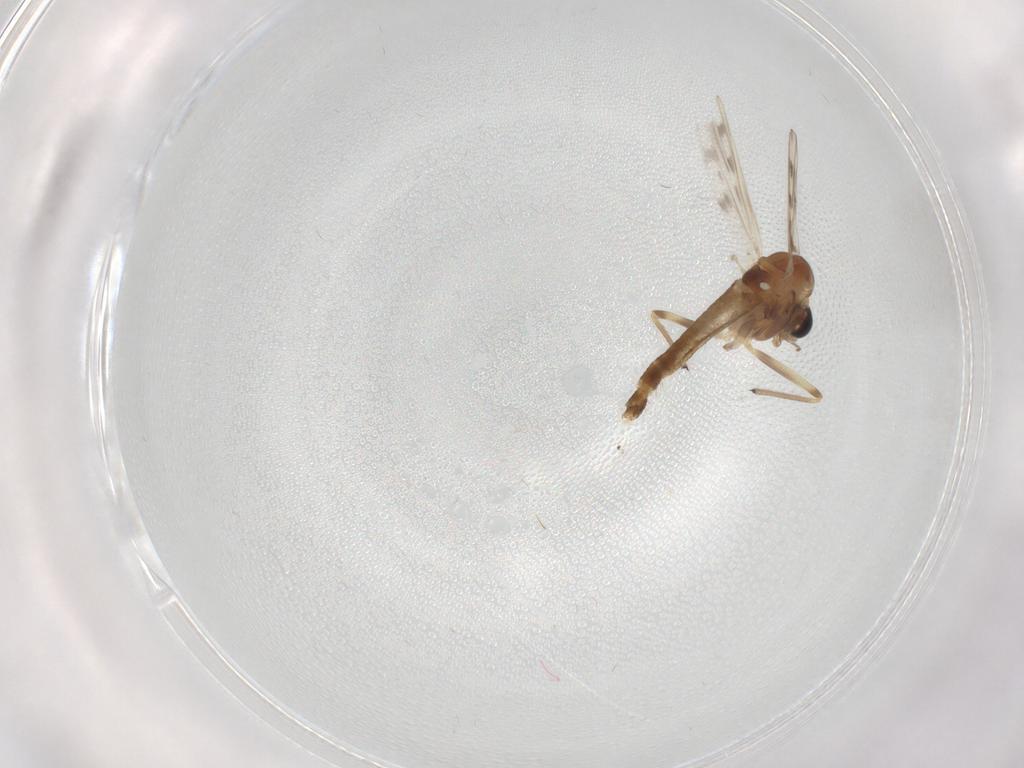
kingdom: Animalia
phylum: Arthropoda
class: Insecta
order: Diptera
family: Chironomidae
